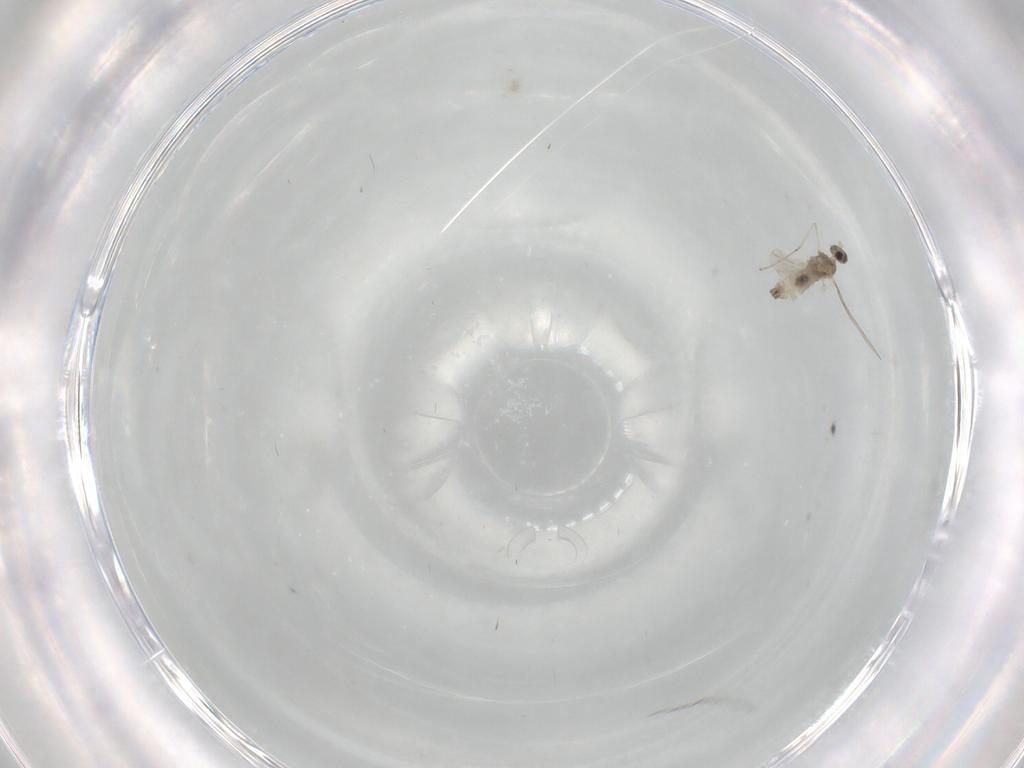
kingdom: Animalia
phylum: Arthropoda
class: Insecta
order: Diptera
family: Cecidomyiidae
